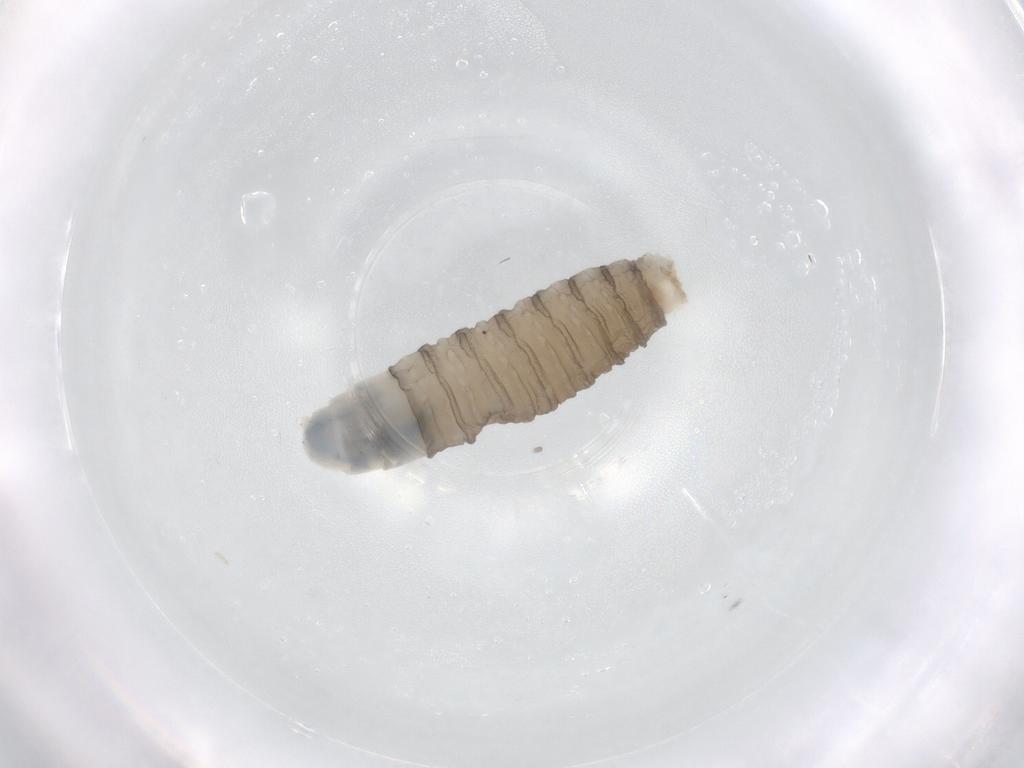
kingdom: Animalia
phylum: Arthropoda
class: Insecta
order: Diptera
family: Sarcophagidae
